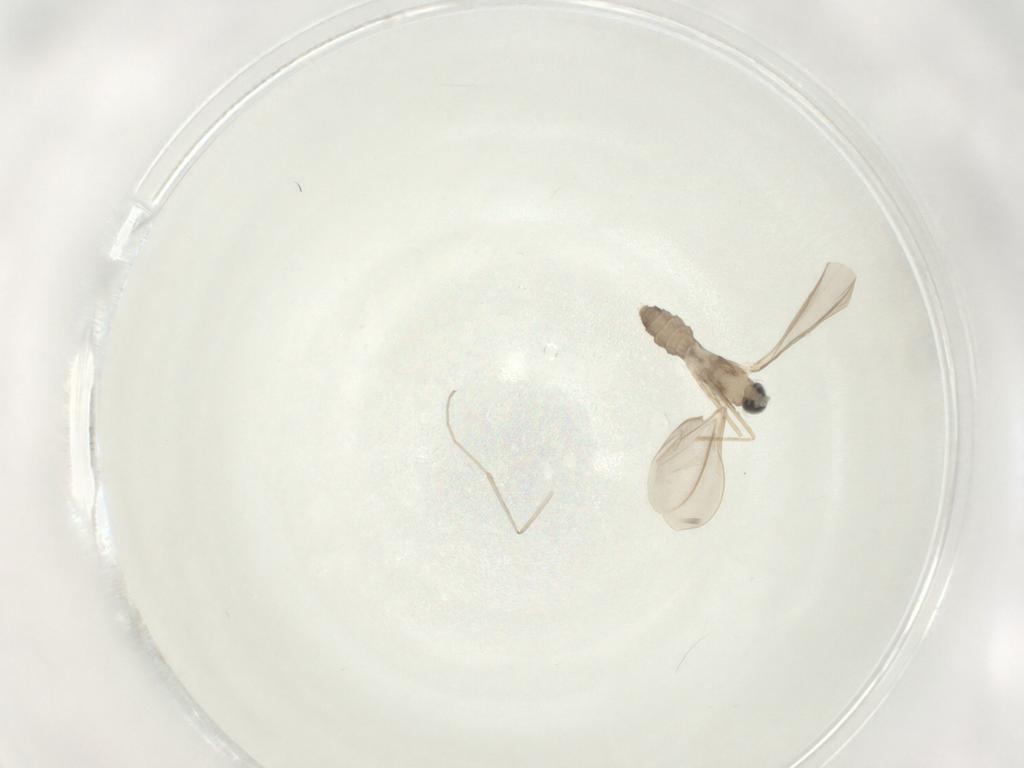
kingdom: Animalia
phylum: Arthropoda
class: Insecta
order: Diptera
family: Cecidomyiidae
